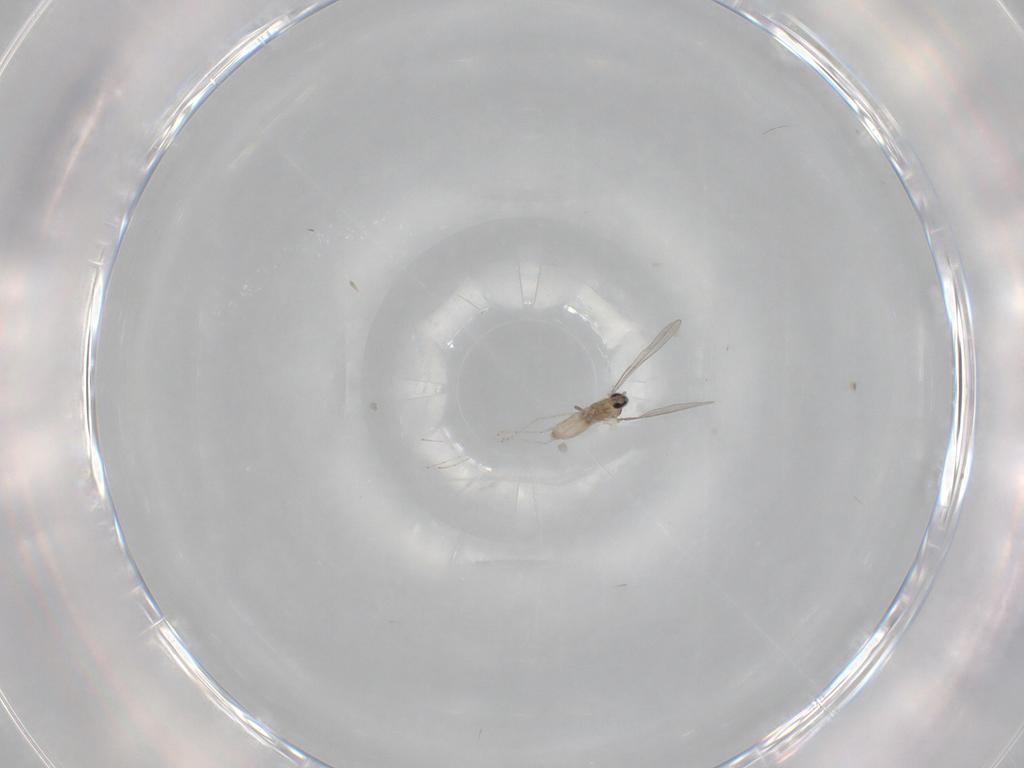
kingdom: Animalia
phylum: Arthropoda
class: Insecta
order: Diptera
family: Cecidomyiidae
